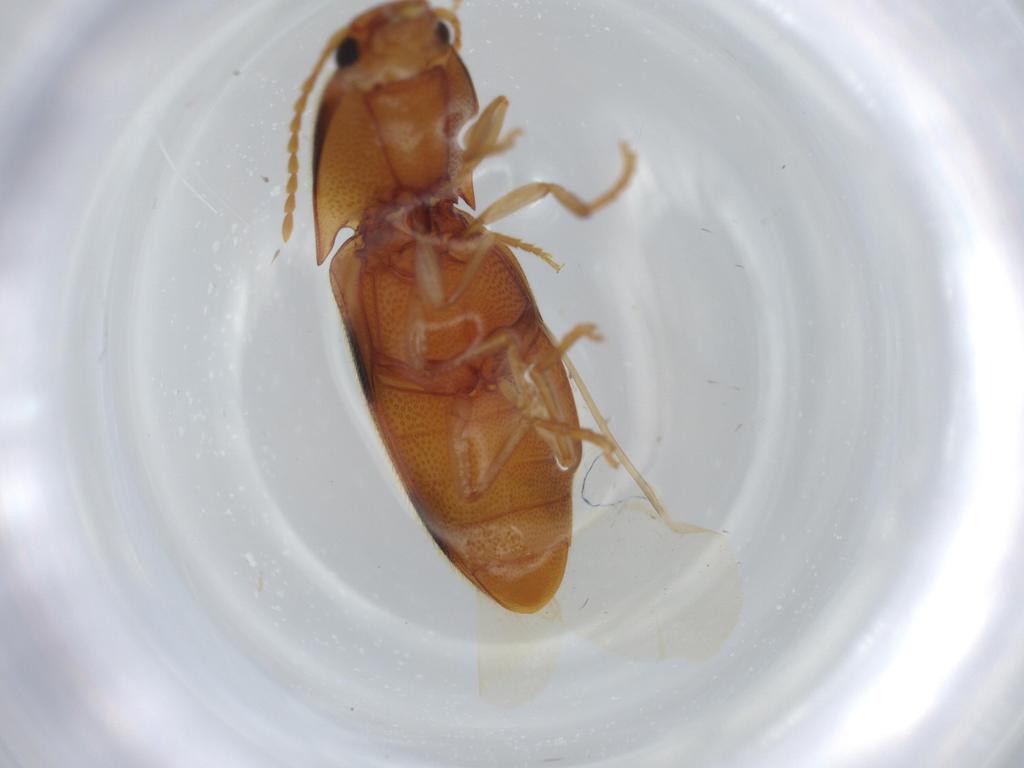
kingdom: Animalia
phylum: Arthropoda
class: Insecta
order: Coleoptera
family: Elateridae
